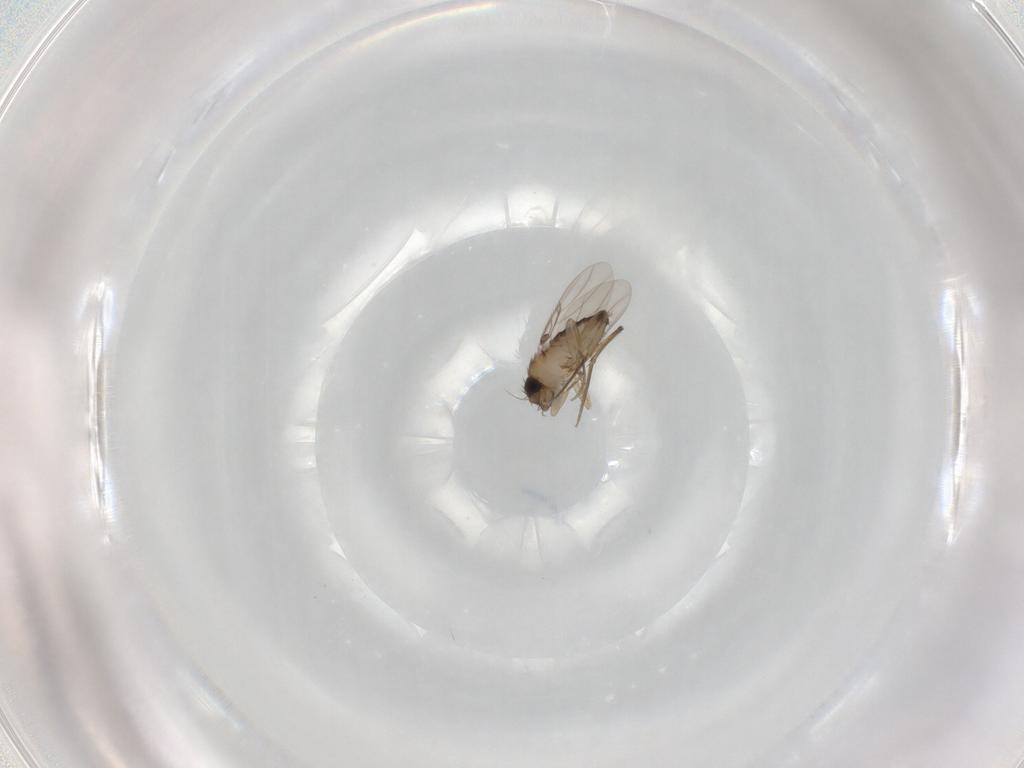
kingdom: Animalia
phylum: Arthropoda
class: Insecta
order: Diptera
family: Phoridae
